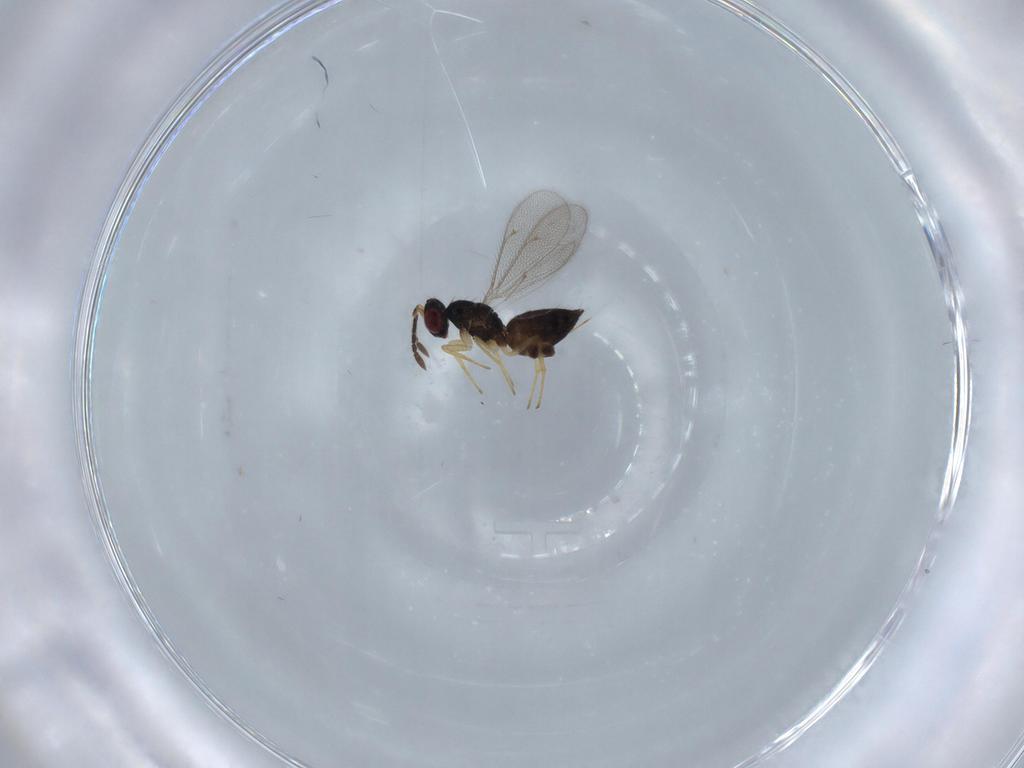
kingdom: Animalia
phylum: Arthropoda
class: Insecta
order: Hymenoptera
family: Eulophidae
